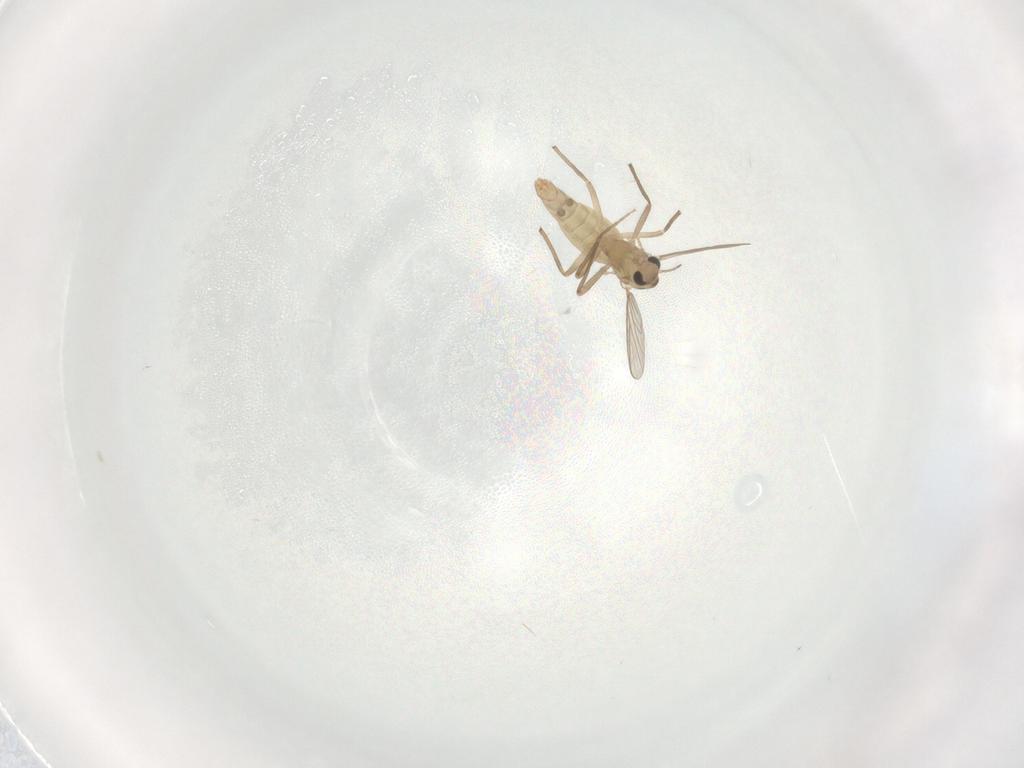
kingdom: Animalia
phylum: Arthropoda
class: Insecta
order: Diptera
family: Chironomidae
